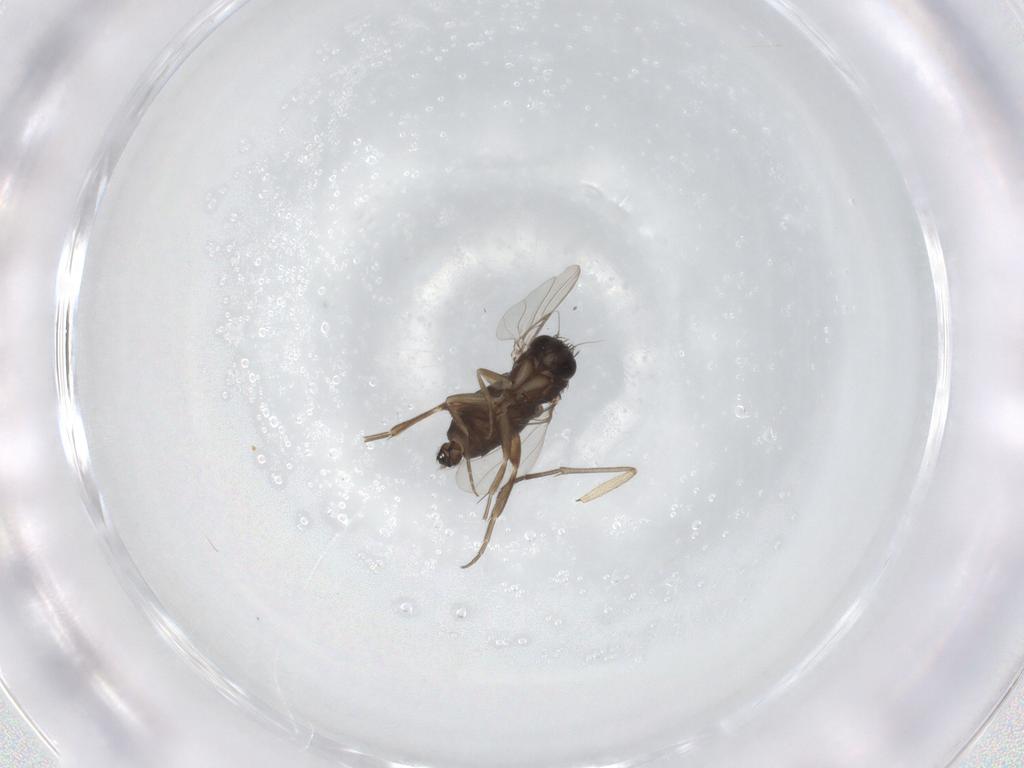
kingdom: Animalia
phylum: Arthropoda
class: Insecta
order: Diptera
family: Phoridae
